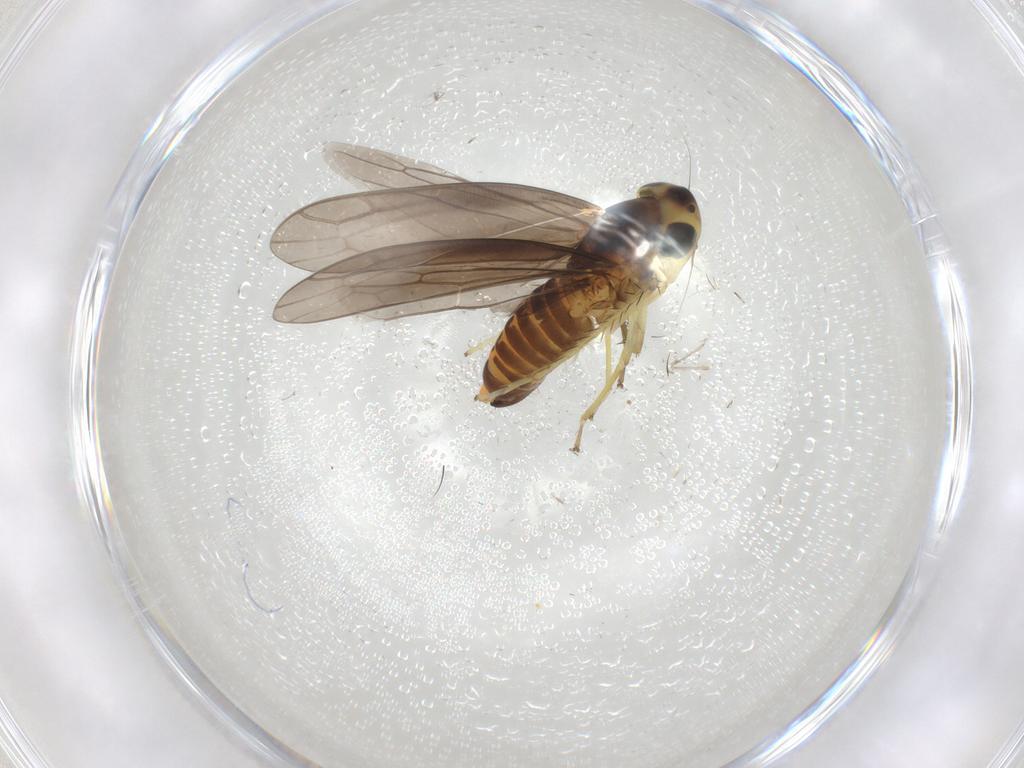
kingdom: Animalia
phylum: Arthropoda
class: Insecta
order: Hemiptera
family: Cicadellidae
